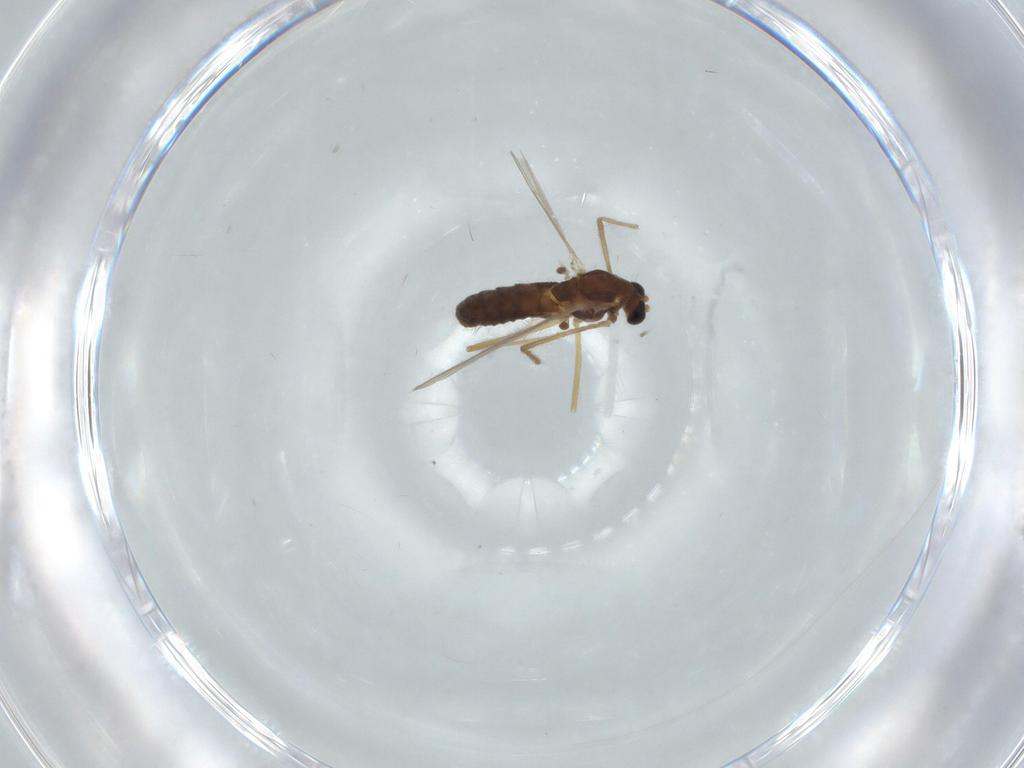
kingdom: Animalia
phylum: Arthropoda
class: Insecta
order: Diptera
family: Chironomidae
